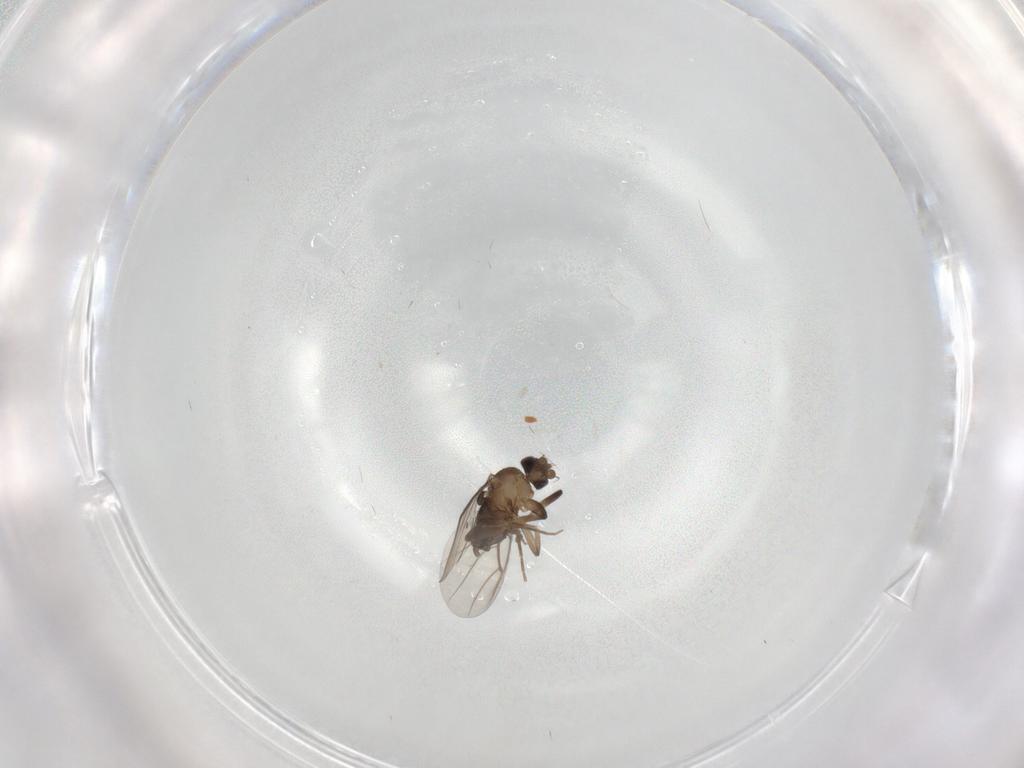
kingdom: Animalia
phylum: Arthropoda
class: Insecta
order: Diptera
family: Phoridae
